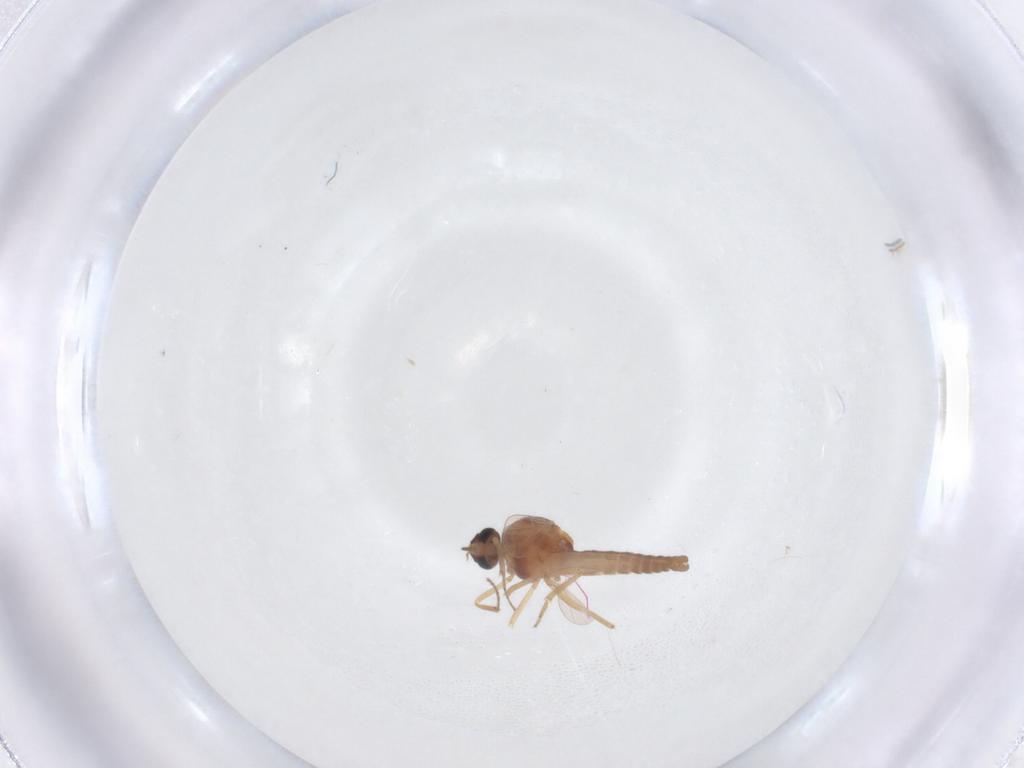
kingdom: Animalia
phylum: Arthropoda
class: Insecta
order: Diptera
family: Ceratopogonidae
